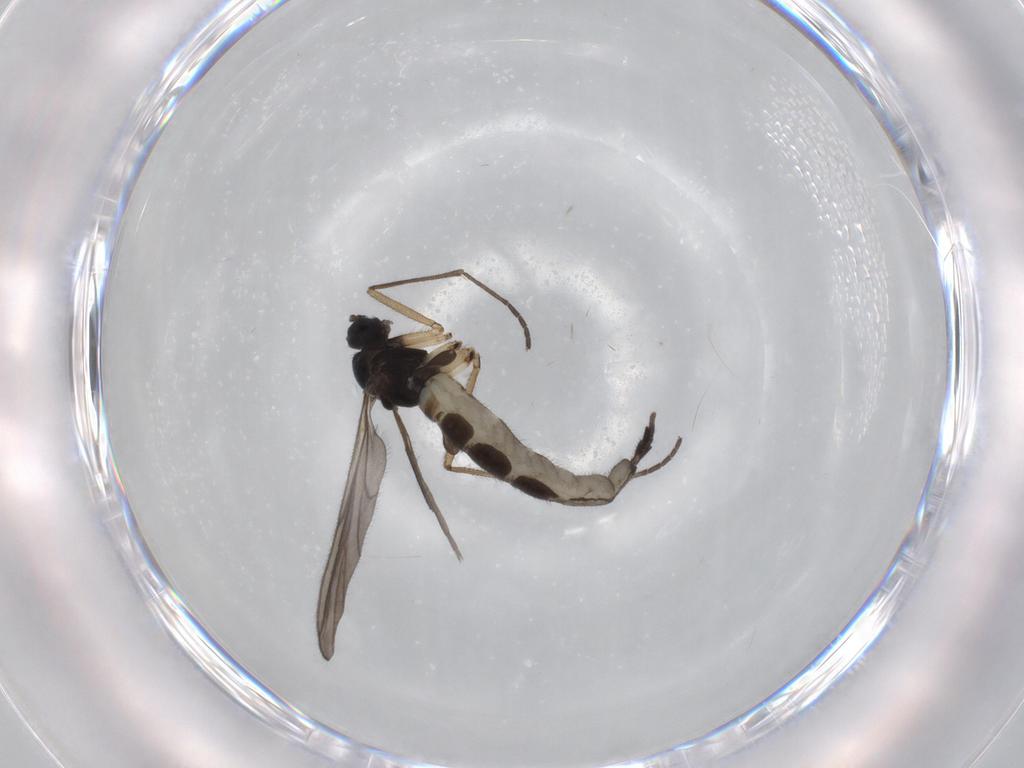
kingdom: Animalia
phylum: Arthropoda
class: Insecta
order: Diptera
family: Sciaridae
